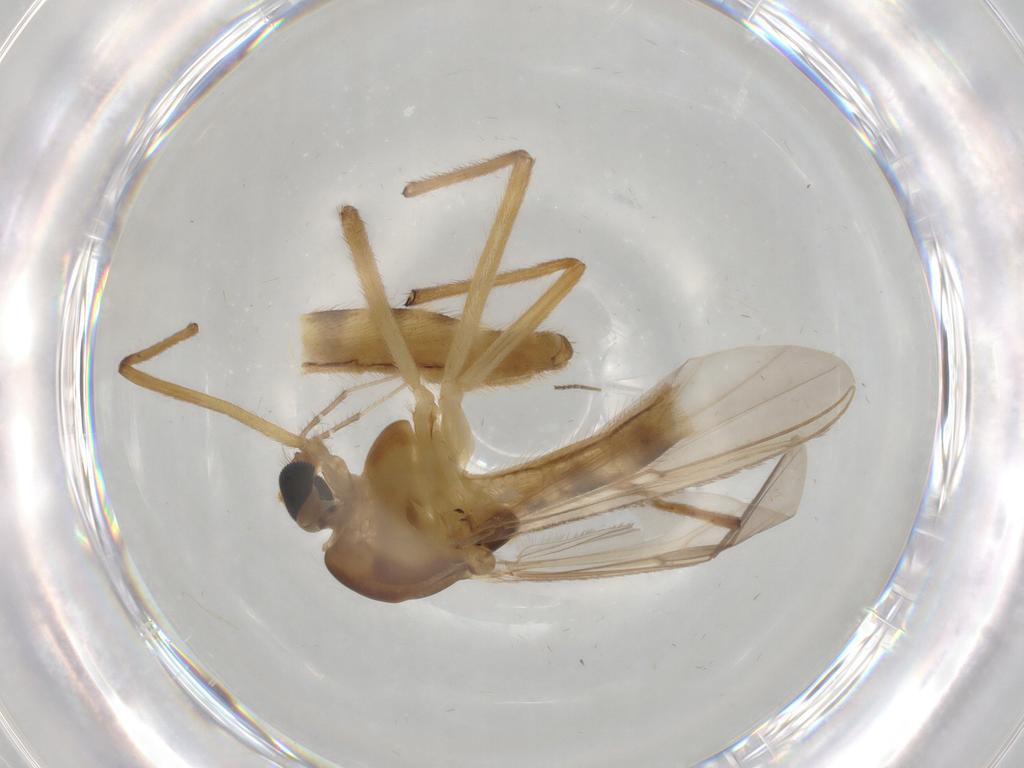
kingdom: Animalia
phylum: Arthropoda
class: Insecta
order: Diptera
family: Chironomidae
